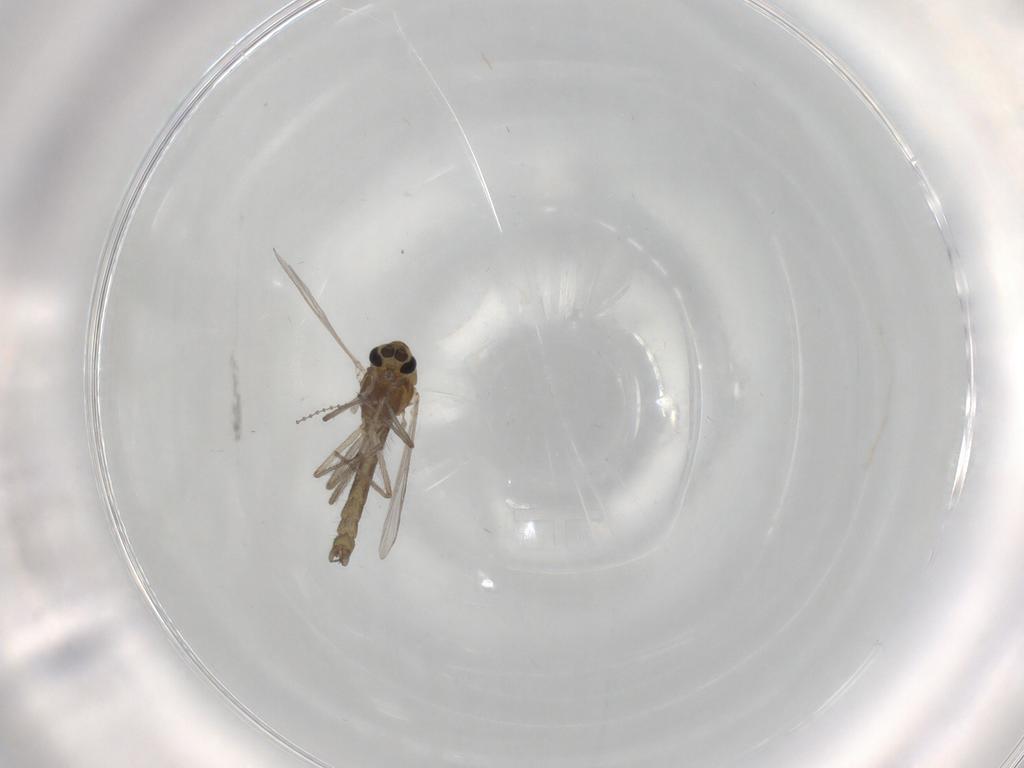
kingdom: Animalia
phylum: Arthropoda
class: Insecta
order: Diptera
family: Chironomidae
